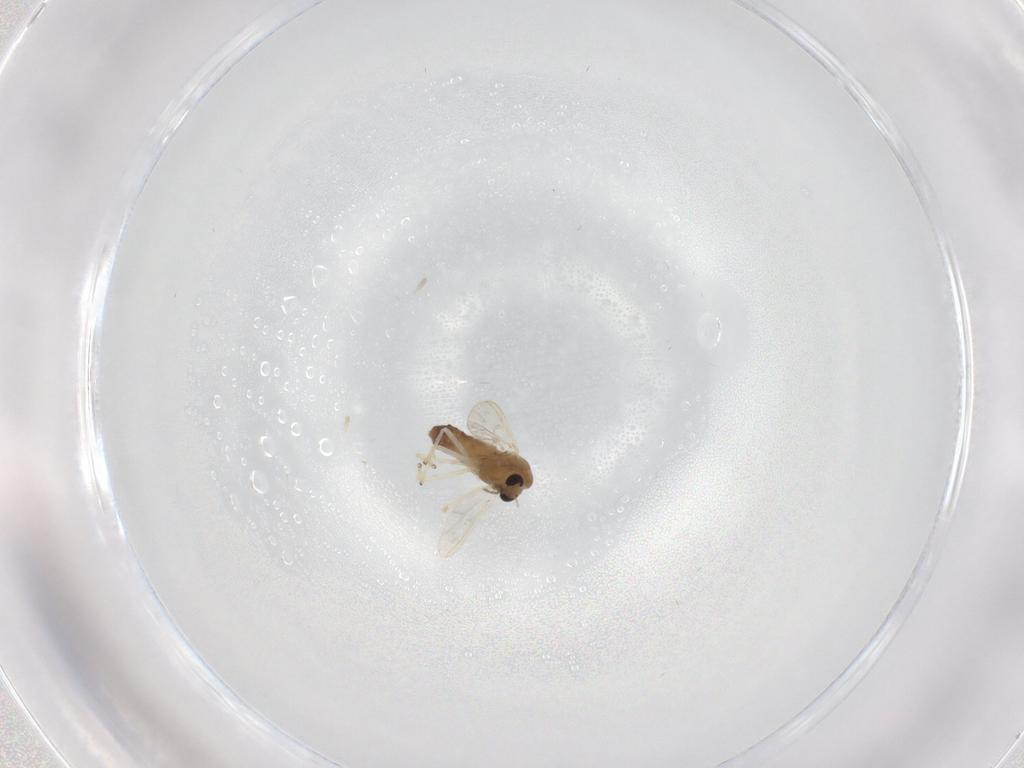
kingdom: Animalia
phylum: Arthropoda
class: Insecta
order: Diptera
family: Chironomidae
